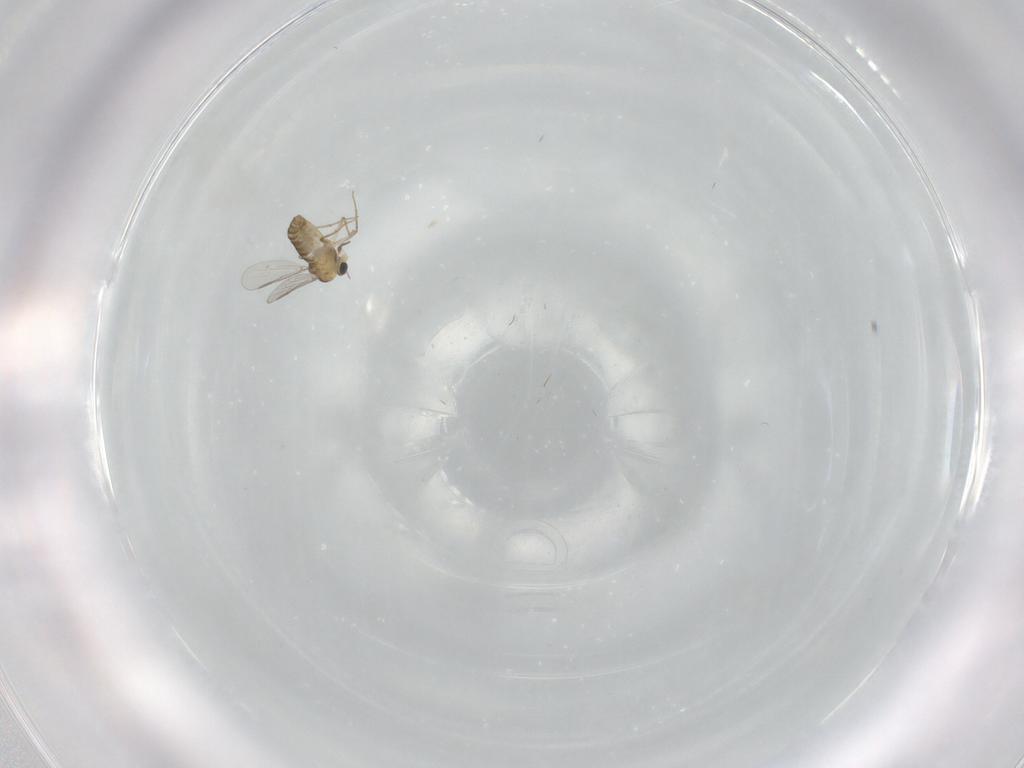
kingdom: Animalia
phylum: Arthropoda
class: Insecta
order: Diptera
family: Chironomidae
